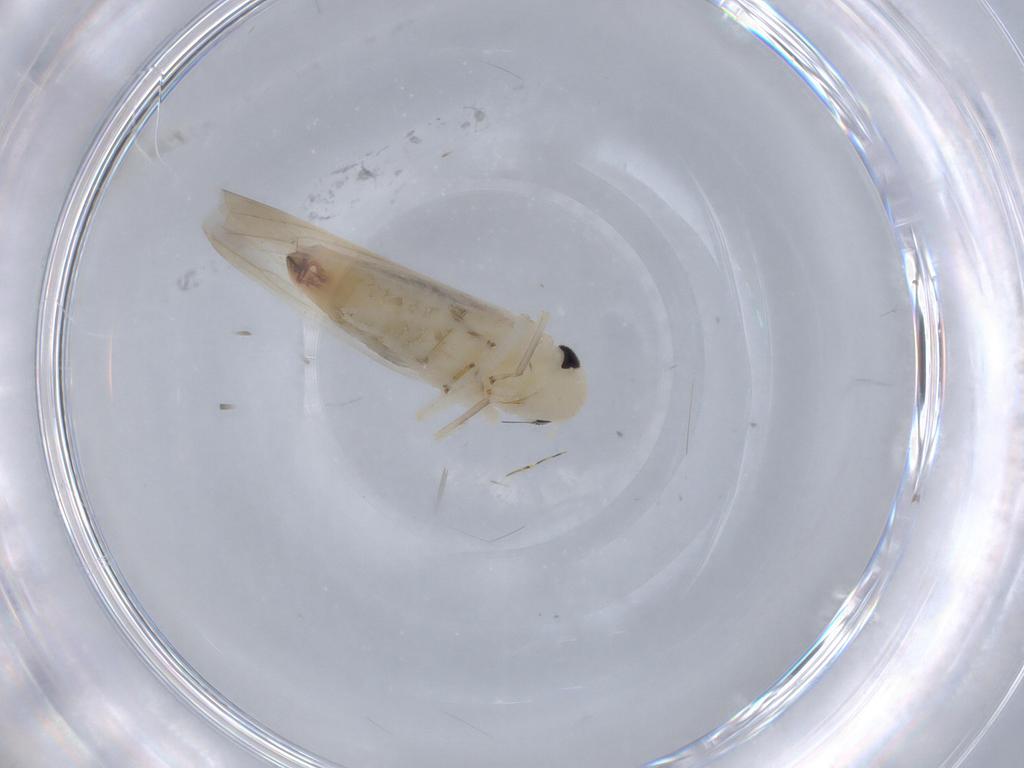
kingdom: Animalia
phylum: Arthropoda
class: Insecta
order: Hemiptera
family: Cicadellidae
